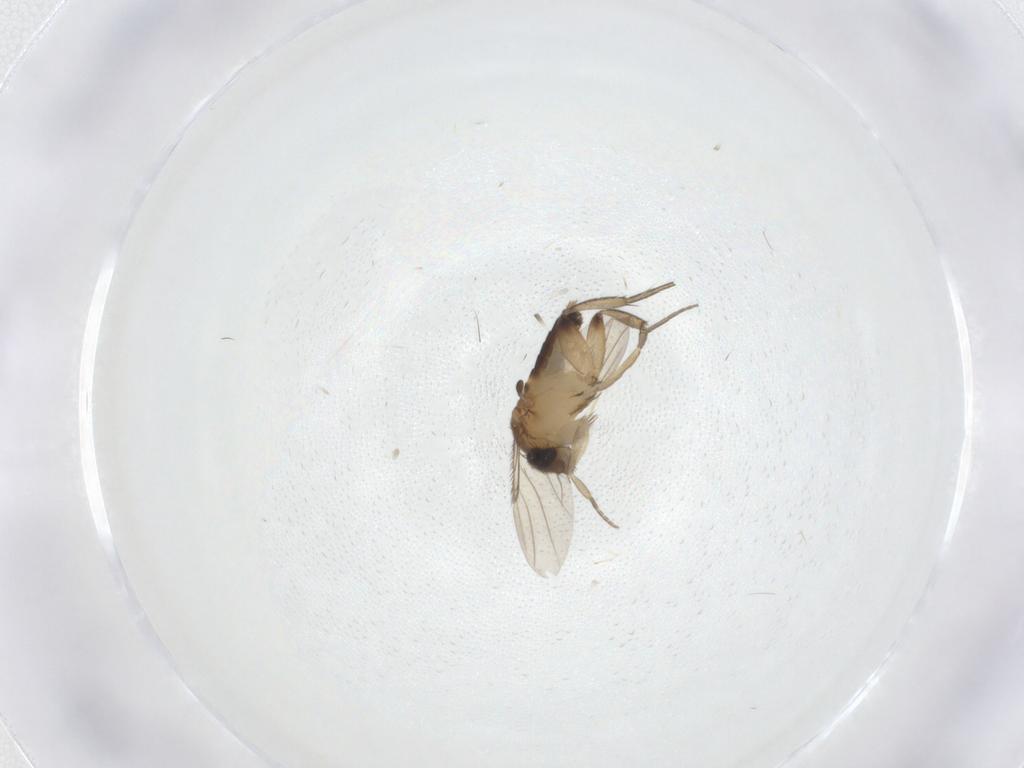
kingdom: Animalia
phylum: Arthropoda
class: Insecta
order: Diptera
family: Phoridae
